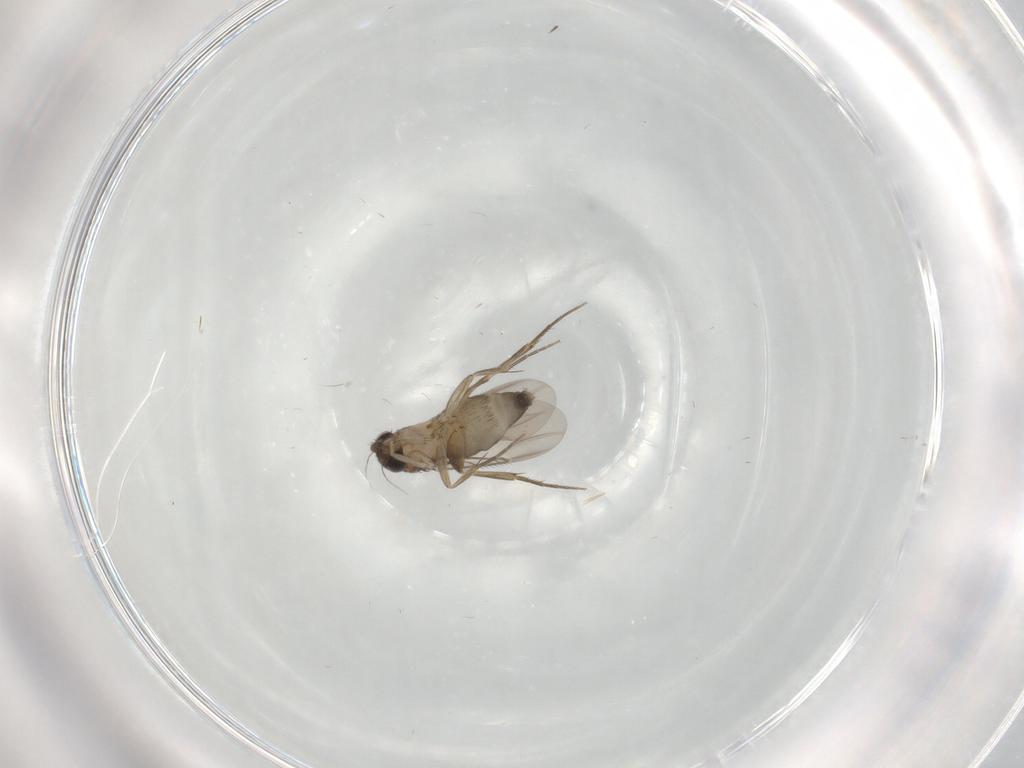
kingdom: Animalia
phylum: Arthropoda
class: Insecta
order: Diptera
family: Phoridae
